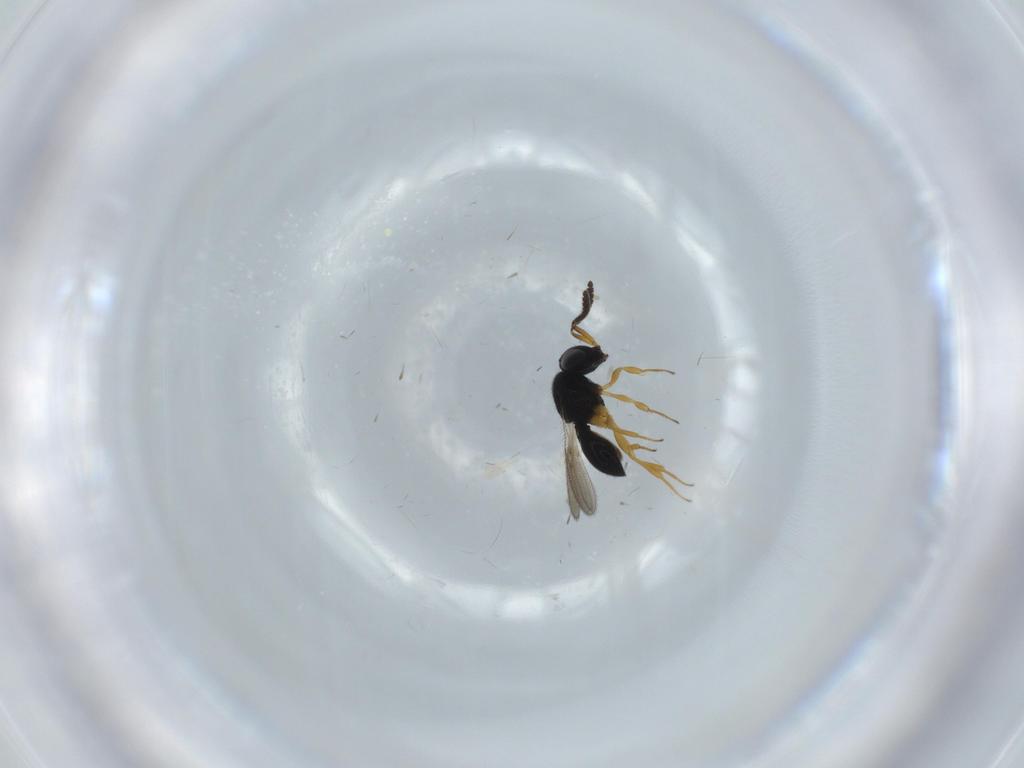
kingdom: Animalia
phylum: Arthropoda
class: Insecta
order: Hymenoptera
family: Scelionidae
